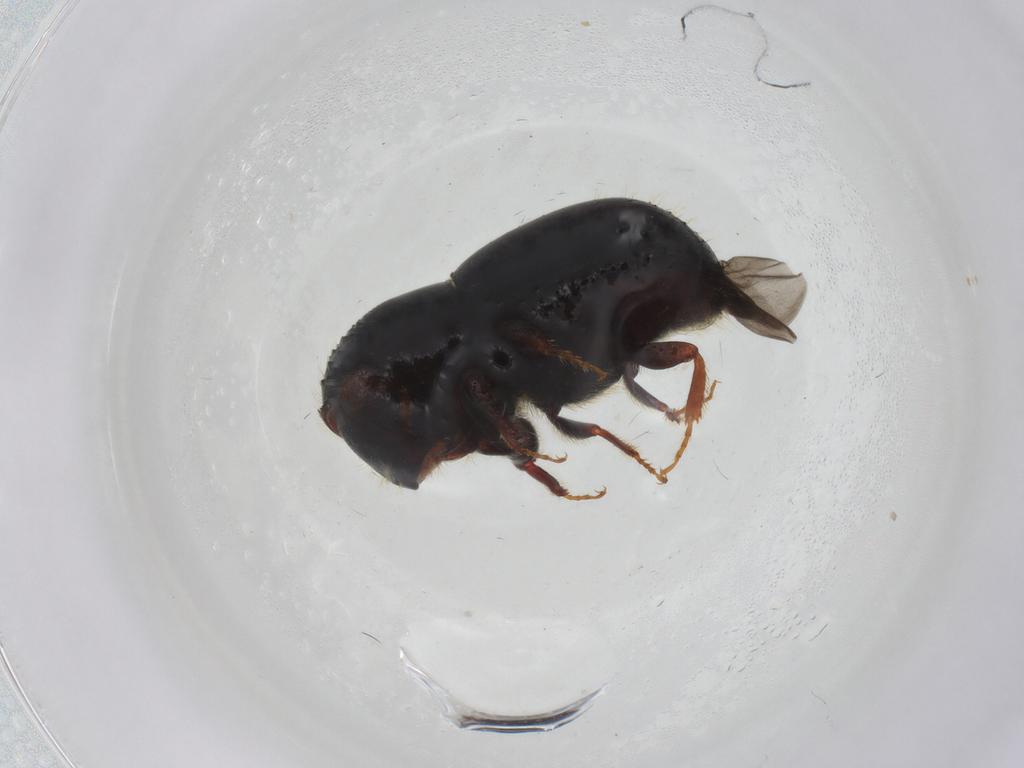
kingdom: Animalia
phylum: Arthropoda
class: Insecta
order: Coleoptera
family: Curculionidae
